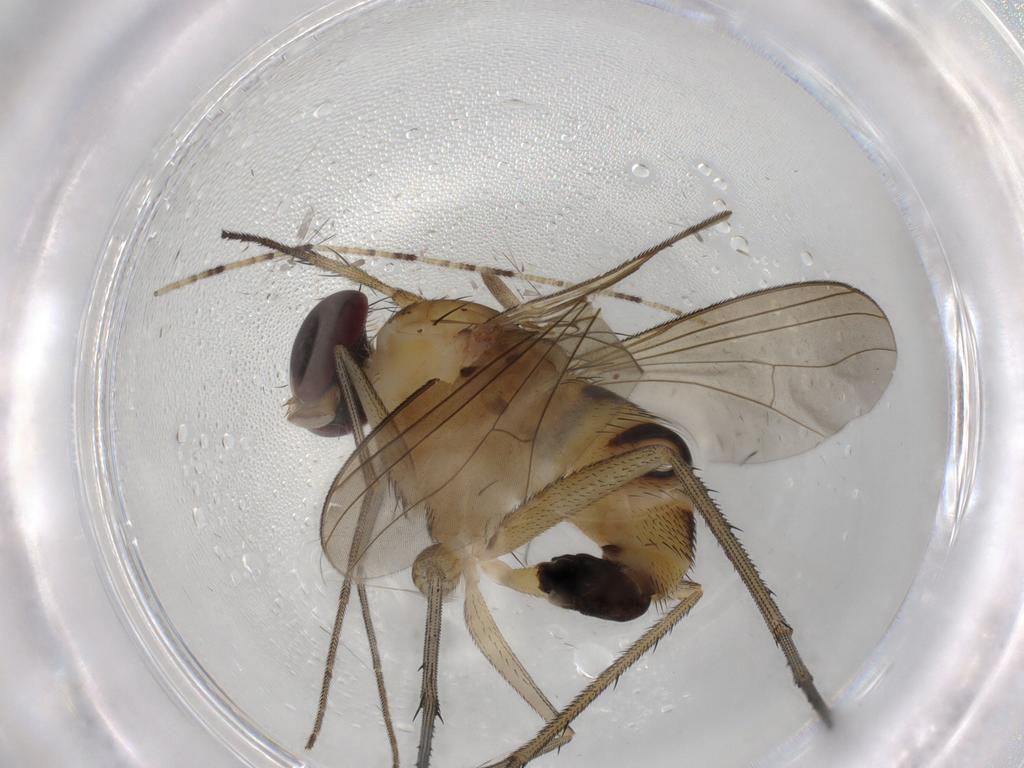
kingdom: Animalia
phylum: Arthropoda
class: Insecta
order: Diptera
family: Dolichopodidae
